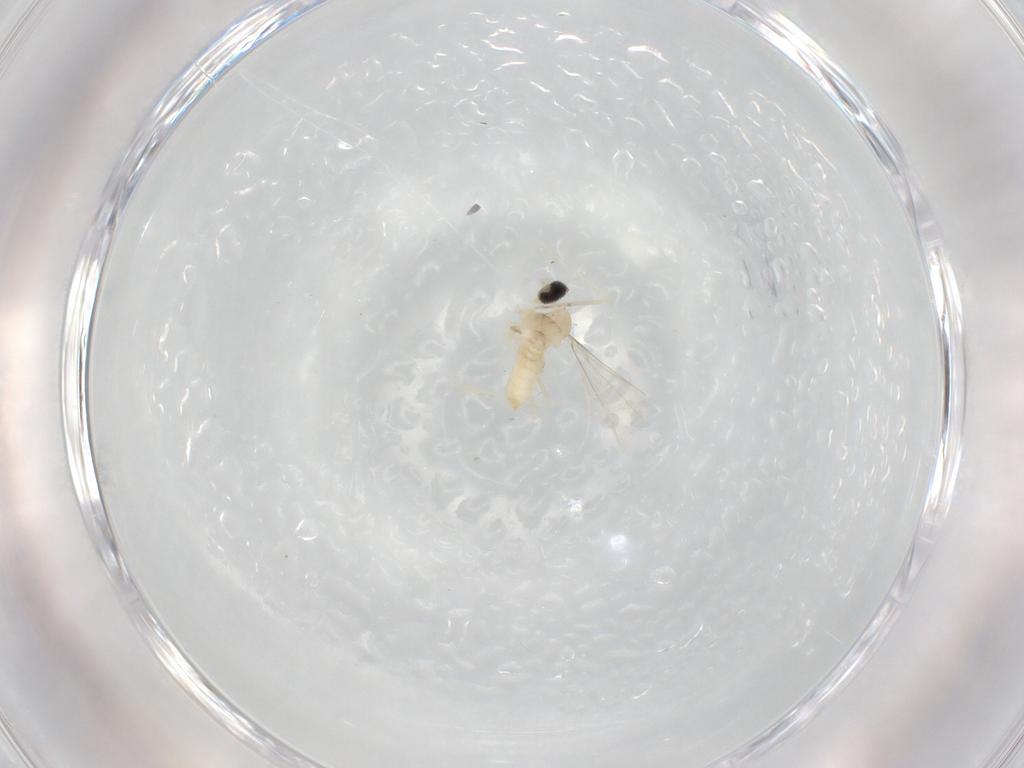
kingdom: Animalia
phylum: Arthropoda
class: Insecta
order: Diptera
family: Cecidomyiidae
